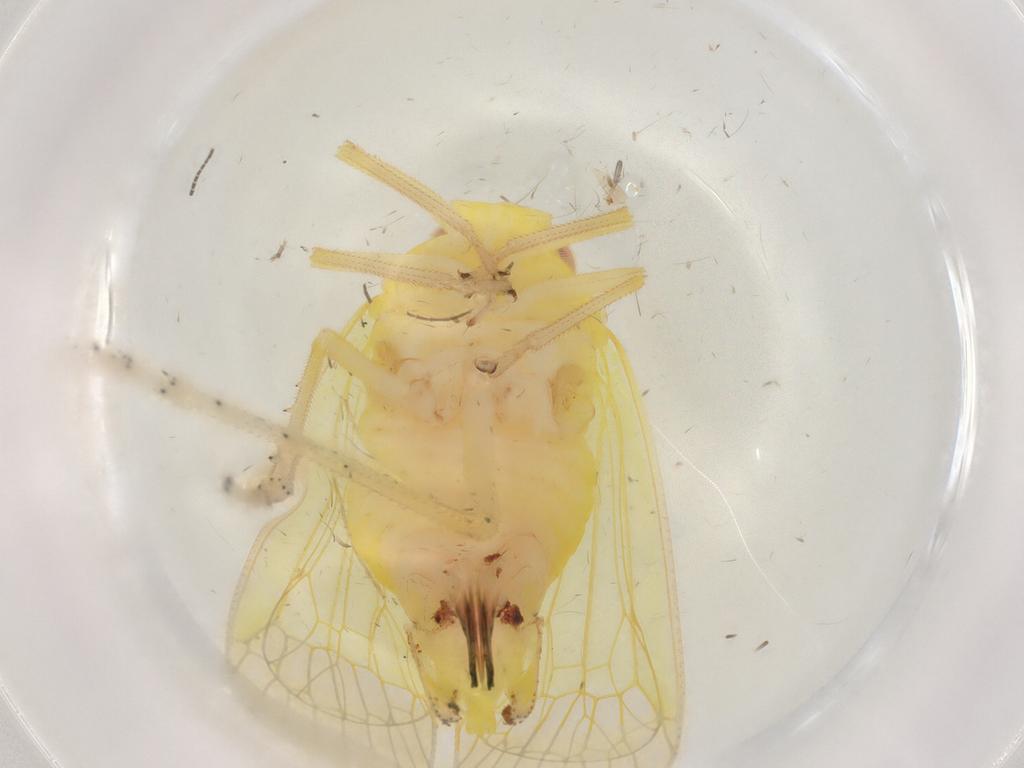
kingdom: Animalia
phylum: Arthropoda
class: Insecta
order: Hemiptera
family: Tropiduchidae
